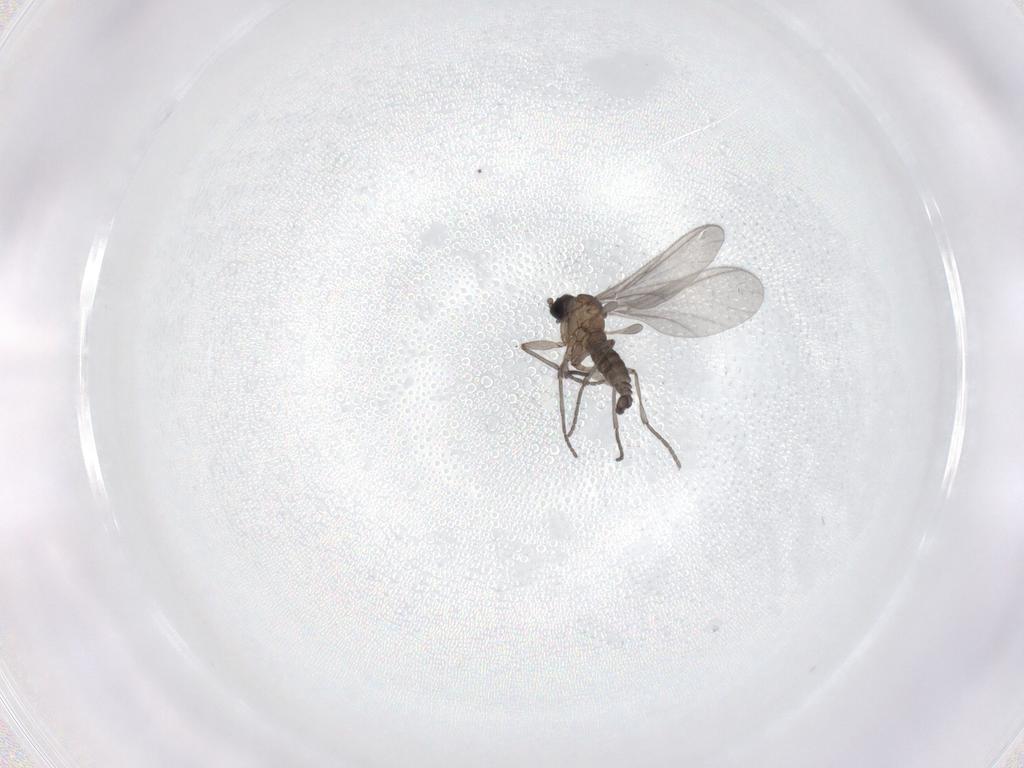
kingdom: Animalia
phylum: Arthropoda
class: Insecta
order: Diptera
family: Sciaridae
